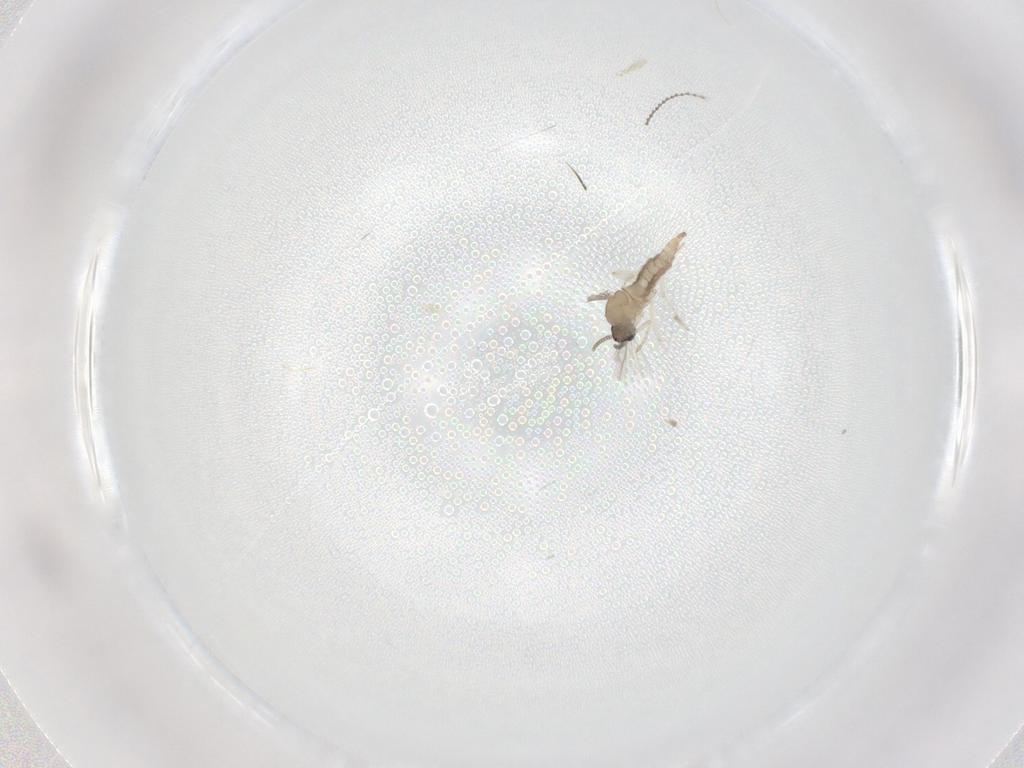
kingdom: Animalia
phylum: Arthropoda
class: Insecta
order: Diptera
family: Cecidomyiidae
